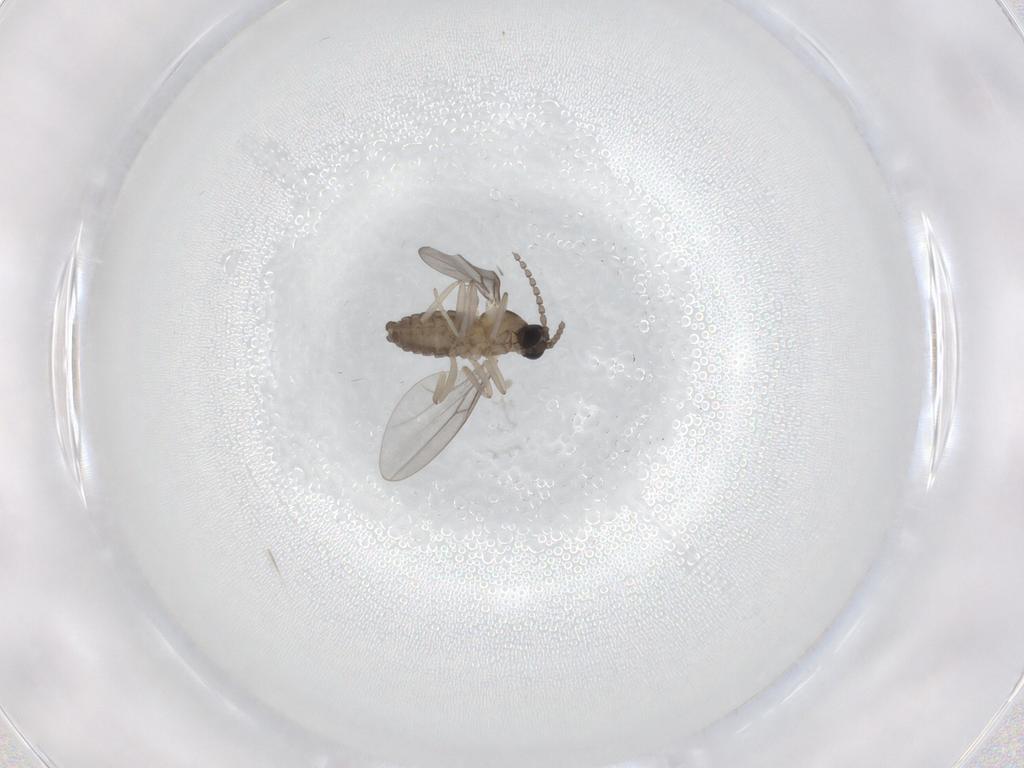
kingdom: Animalia
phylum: Arthropoda
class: Insecta
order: Diptera
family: Cecidomyiidae
